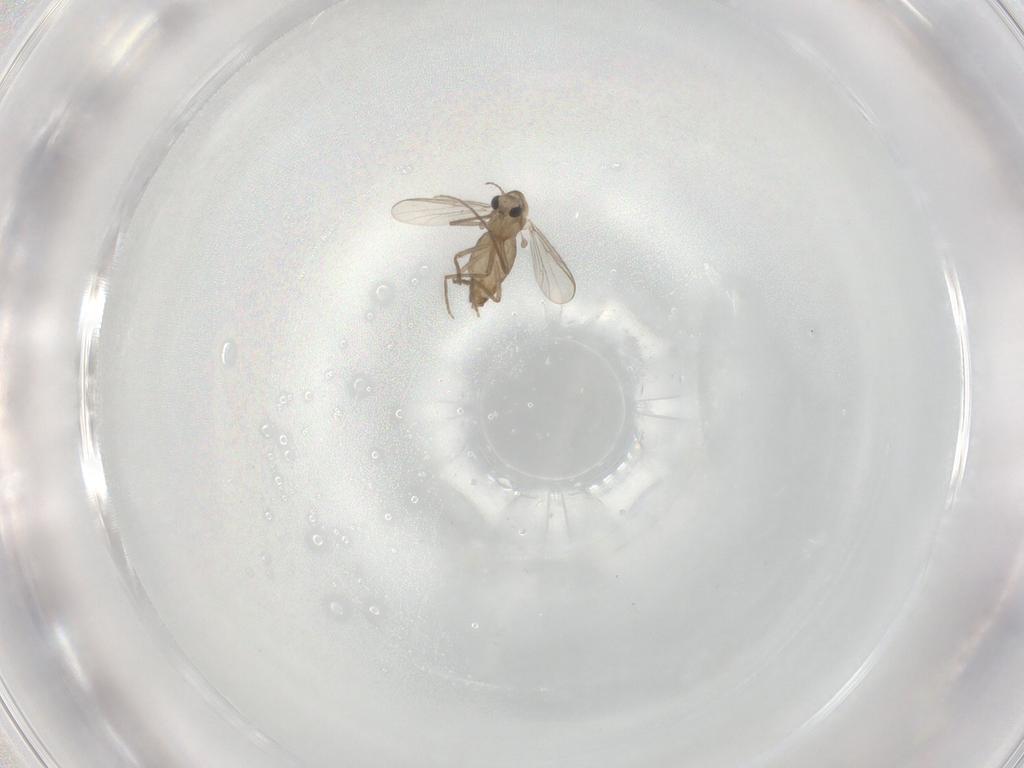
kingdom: Animalia
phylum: Arthropoda
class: Insecta
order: Diptera
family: Chironomidae
